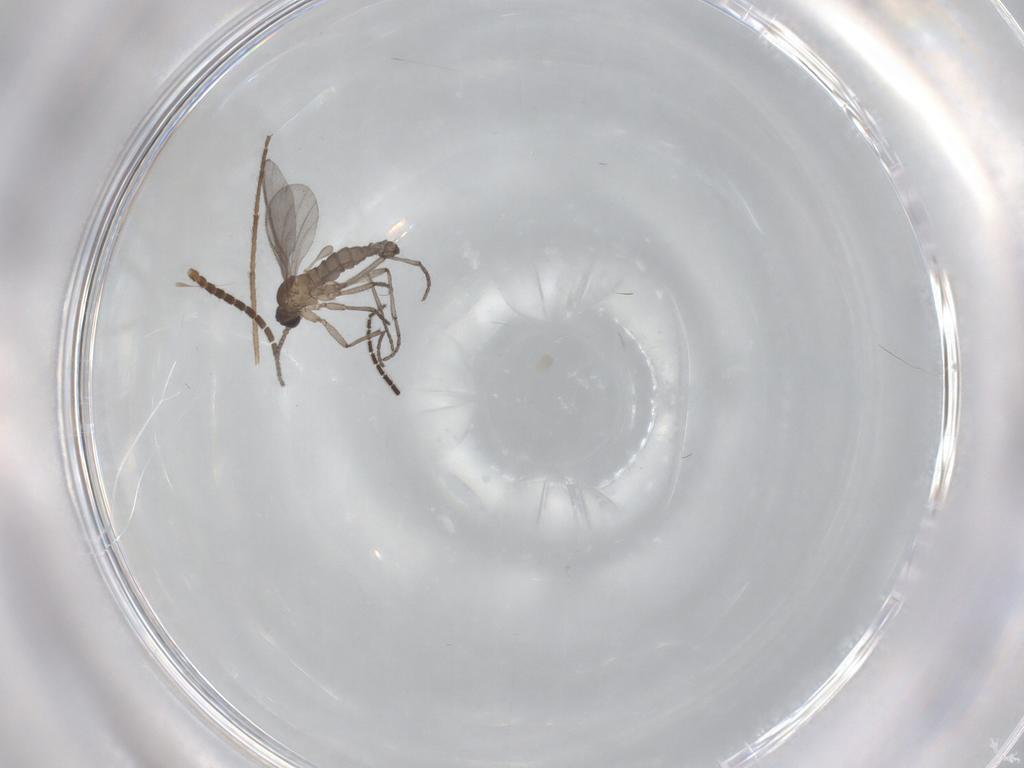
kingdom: Animalia
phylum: Arthropoda
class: Insecta
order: Diptera
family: Sciaridae
